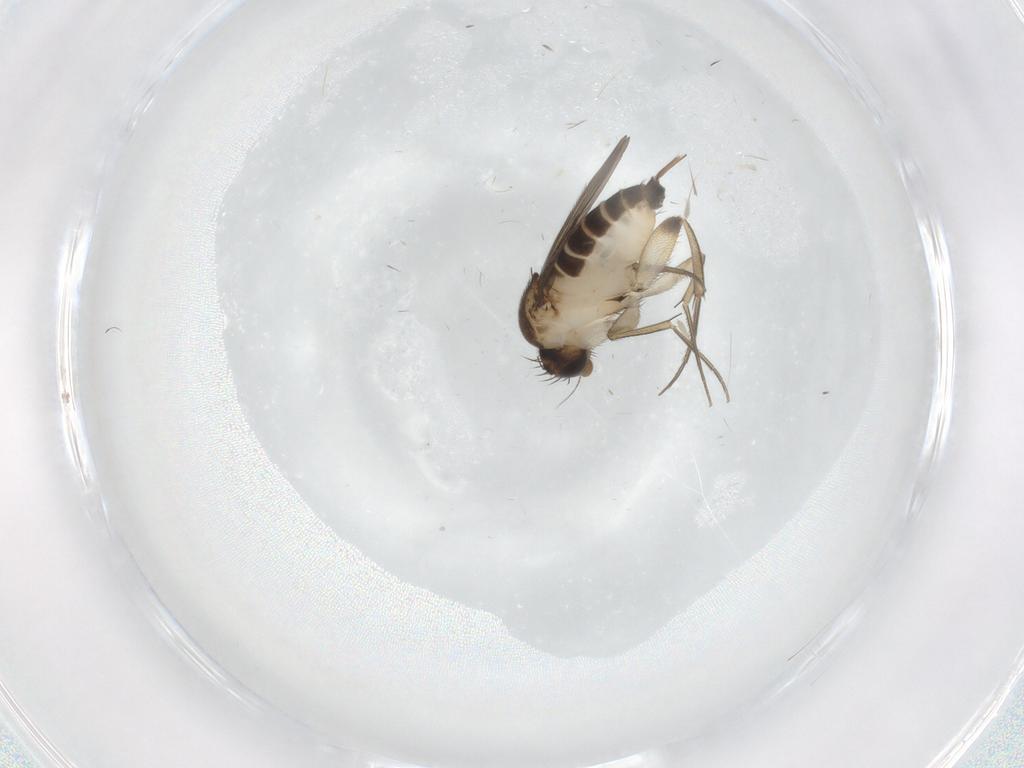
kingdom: Animalia
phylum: Arthropoda
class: Insecta
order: Diptera
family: Phoridae
